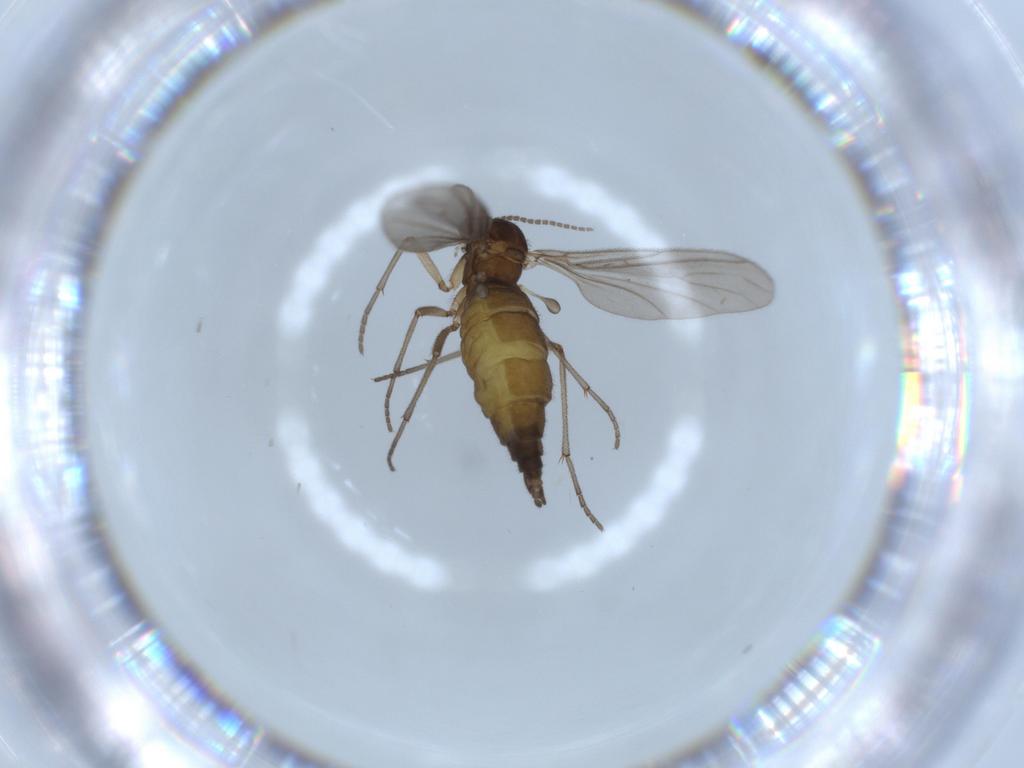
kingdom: Animalia
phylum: Arthropoda
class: Insecta
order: Diptera
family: Sciaridae
